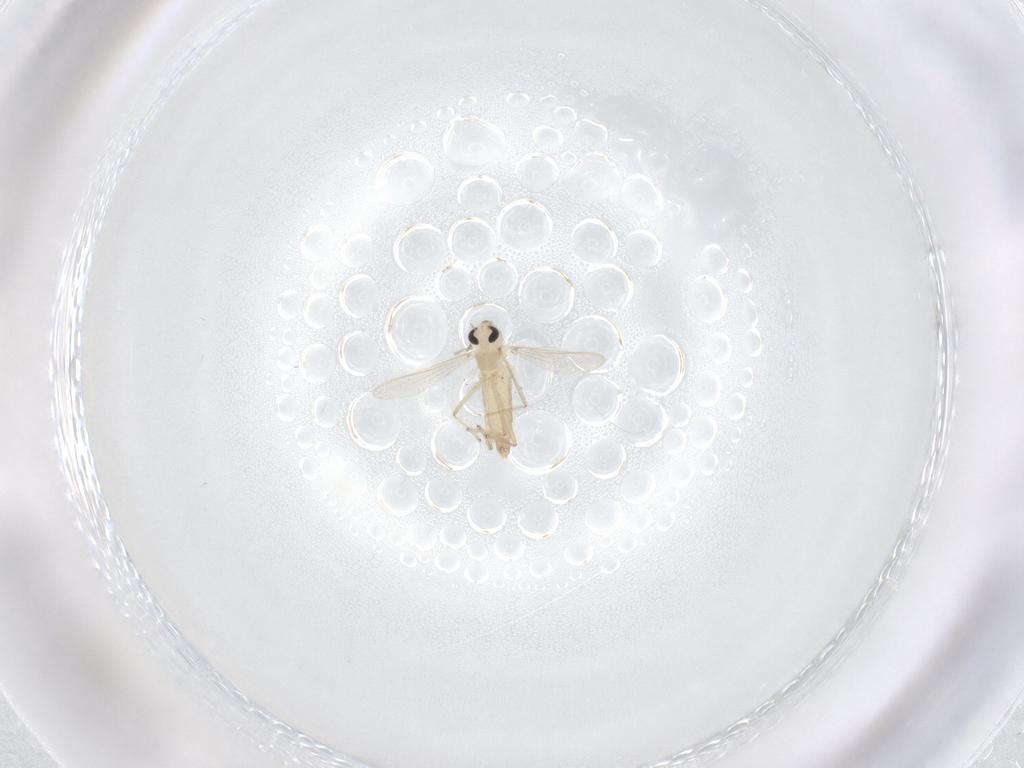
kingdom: Animalia
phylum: Arthropoda
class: Insecta
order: Diptera
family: Chironomidae
